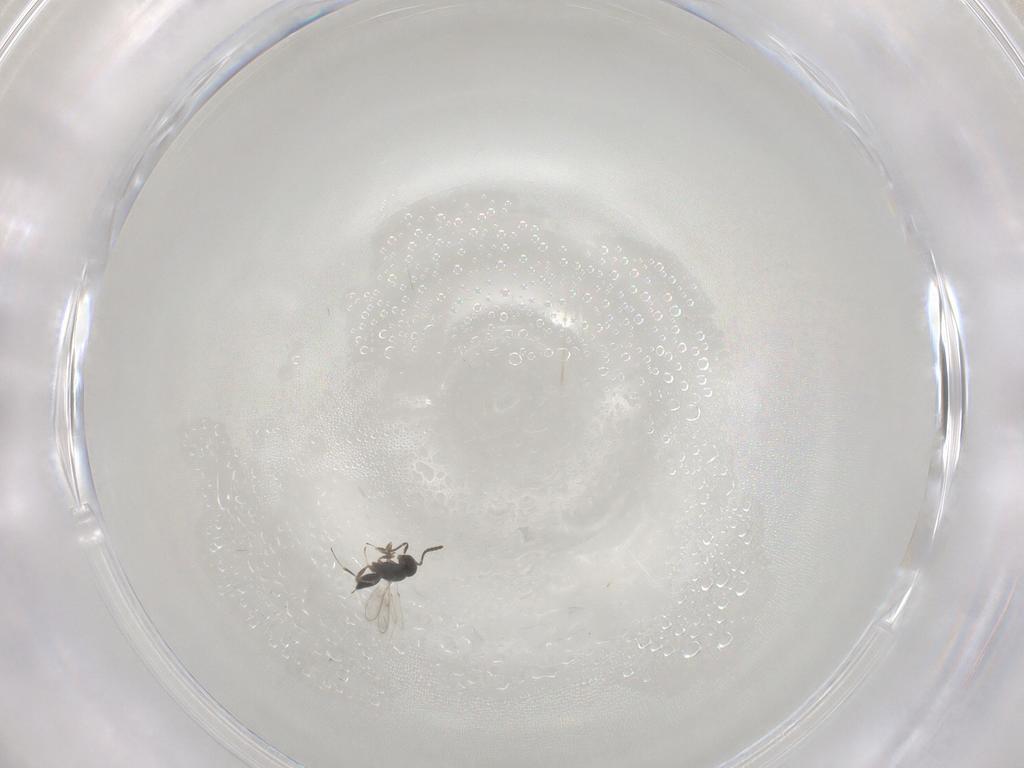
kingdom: Animalia
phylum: Arthropoda
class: Insecta
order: Hymenoptera
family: Scelionidae
